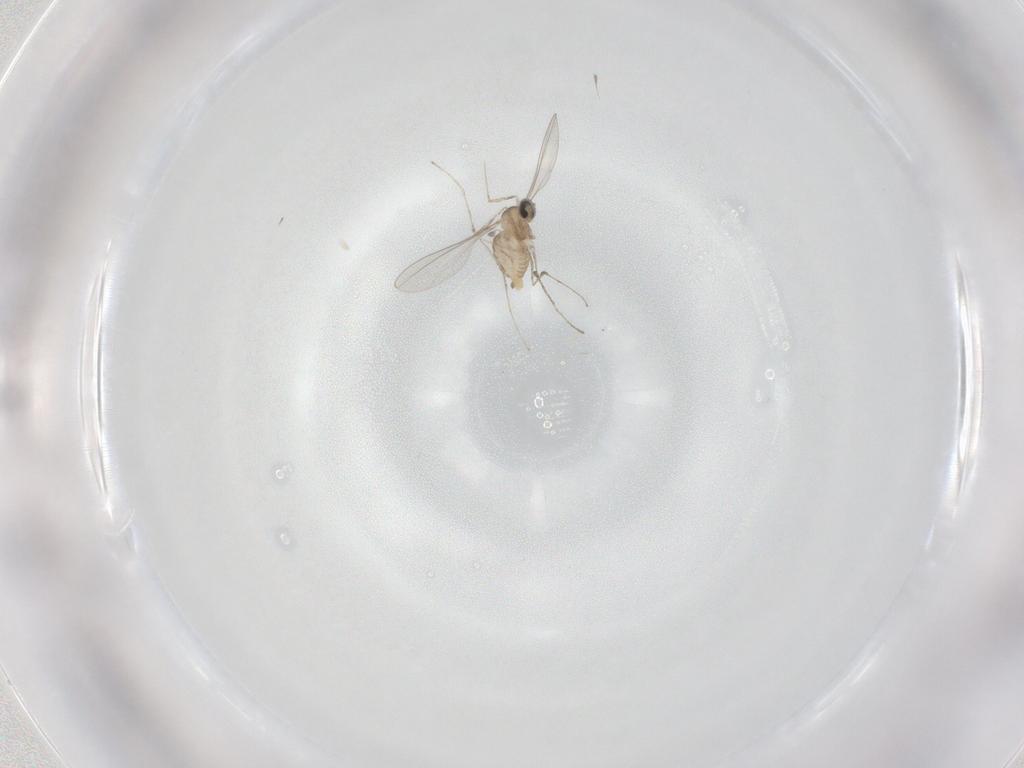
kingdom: Animalia
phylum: Arthropoda
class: Insecta
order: Diptera
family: Cecidomyiidae
